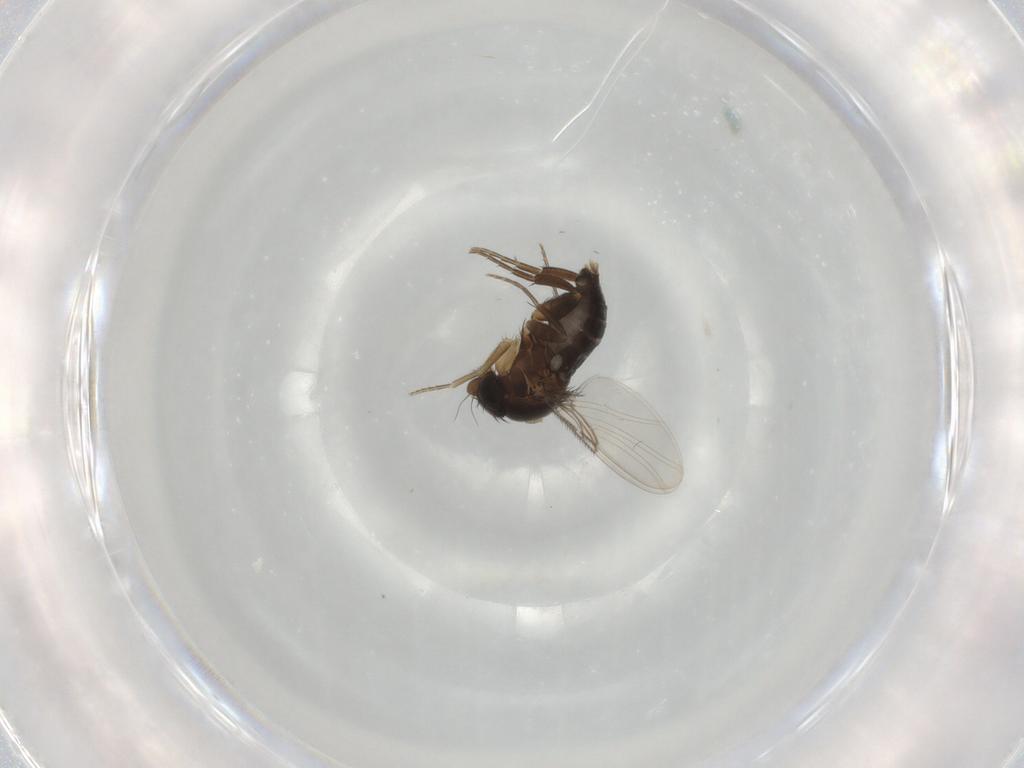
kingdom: Animalia
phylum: Arthropoda
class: Insecta
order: Diptera
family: Phoridae
